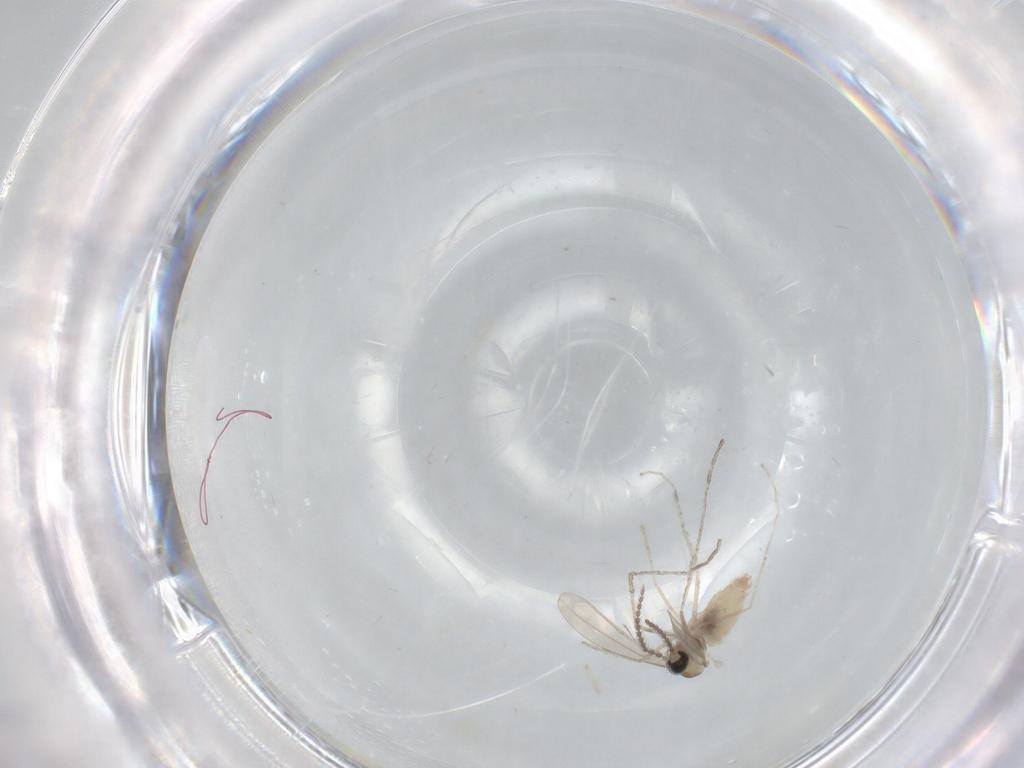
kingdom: Animalia
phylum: Arthropoda
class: Insecta
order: Diptera
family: Cecidomyiidae
